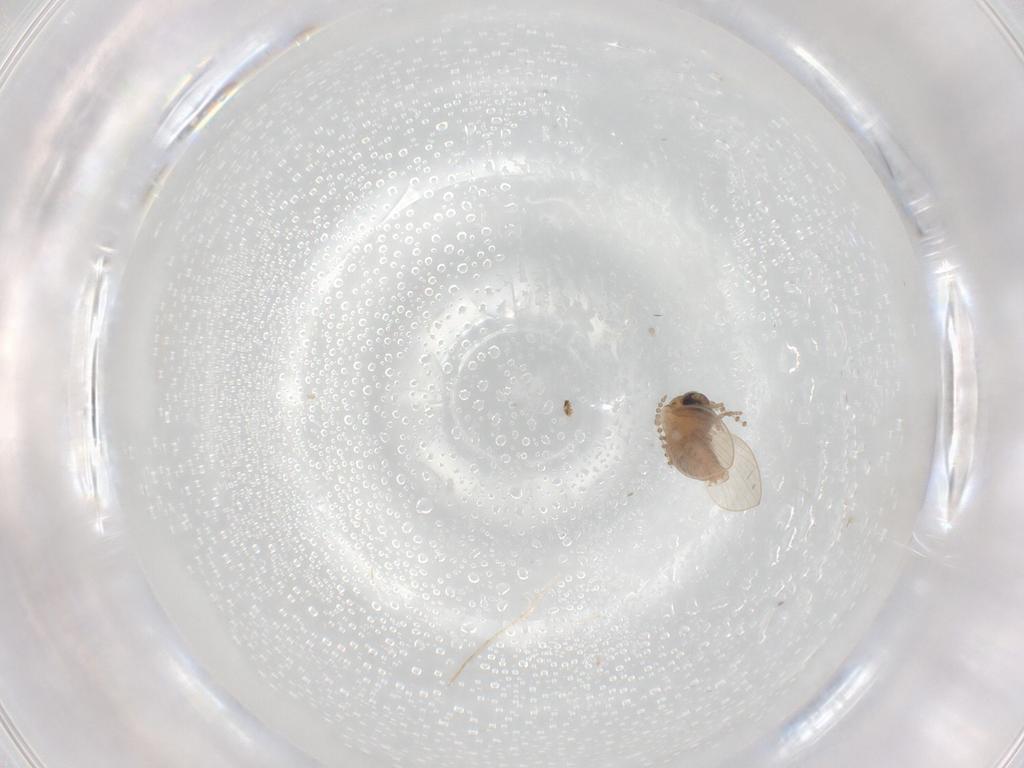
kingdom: Animalia
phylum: Arthropoda
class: Insecta
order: Diptera
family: Psychodidae
